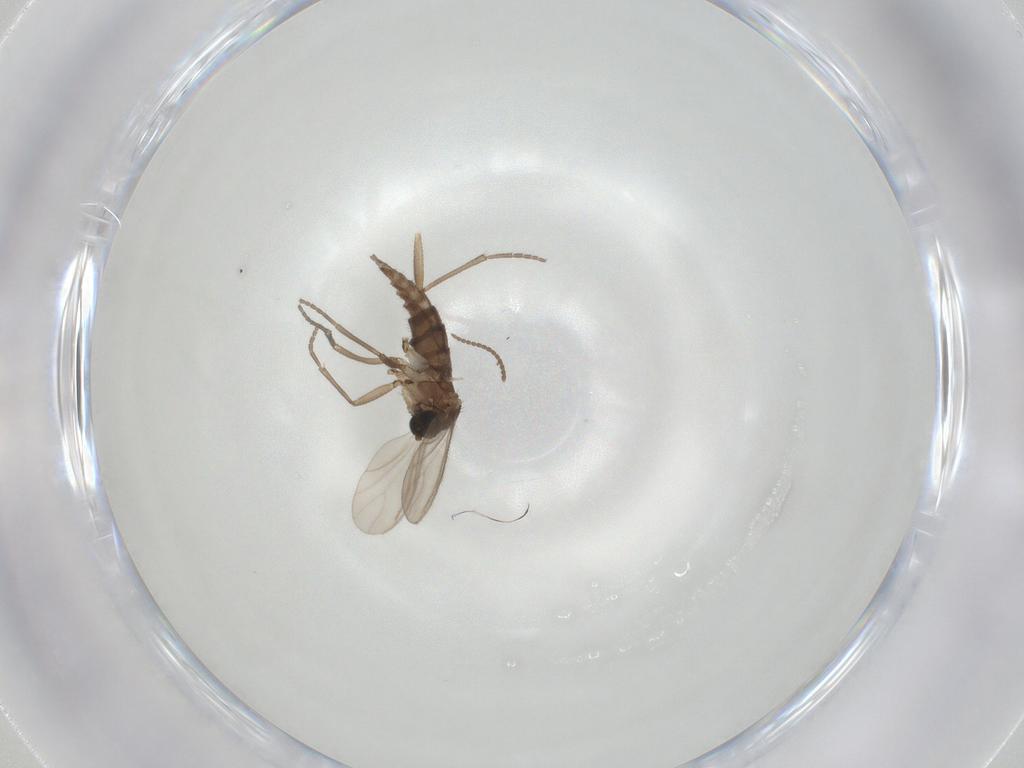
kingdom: Animalia
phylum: Arthropoda
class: Insecta
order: Diptera
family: Sciaridae
